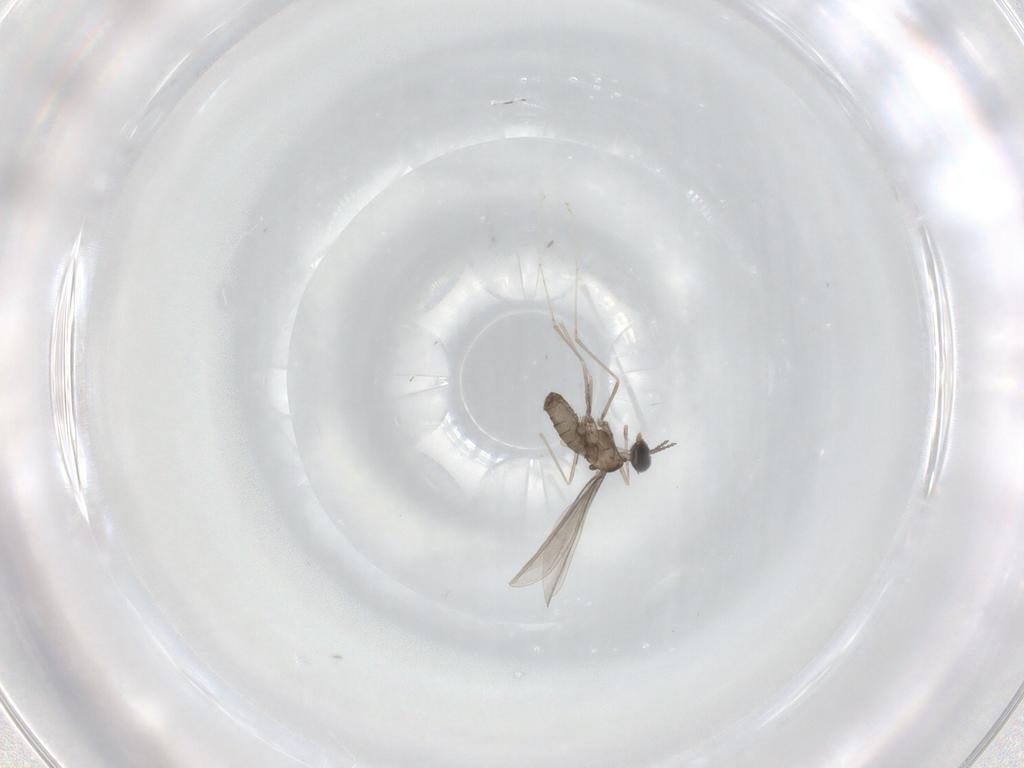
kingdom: Animalia
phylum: Arthropoda
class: Insecta
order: Diptera
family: Cecidomyiidae
